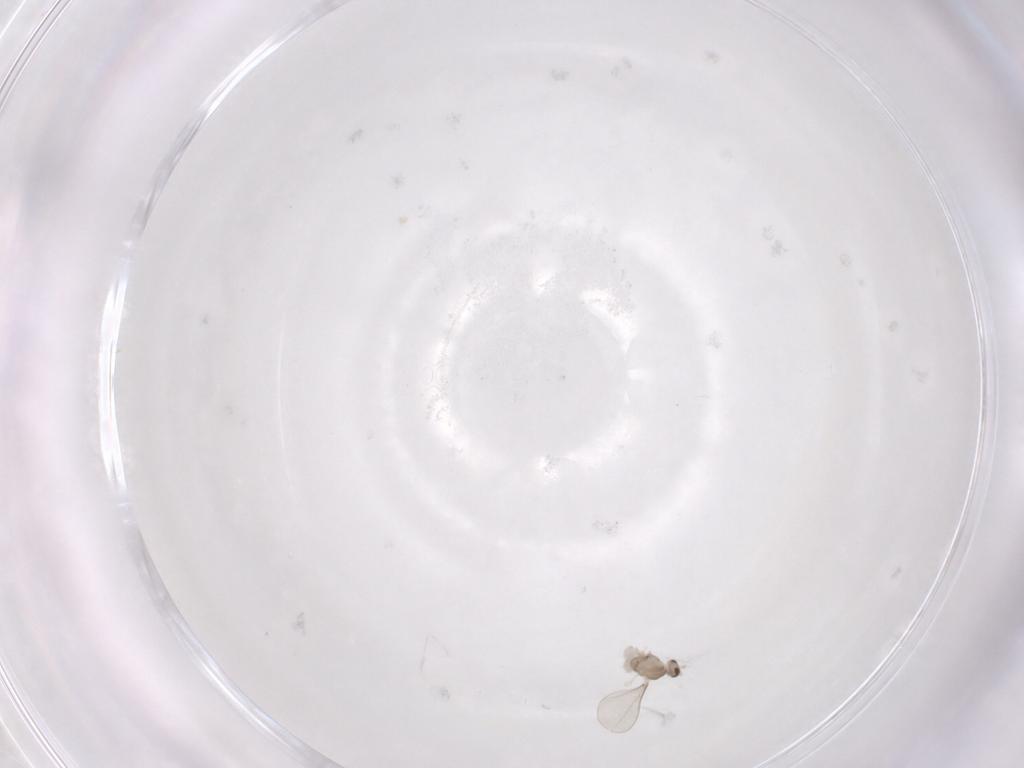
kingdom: Animalia
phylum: Arthropoda
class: Insecta
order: Diptera
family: Cecidomyiidae
